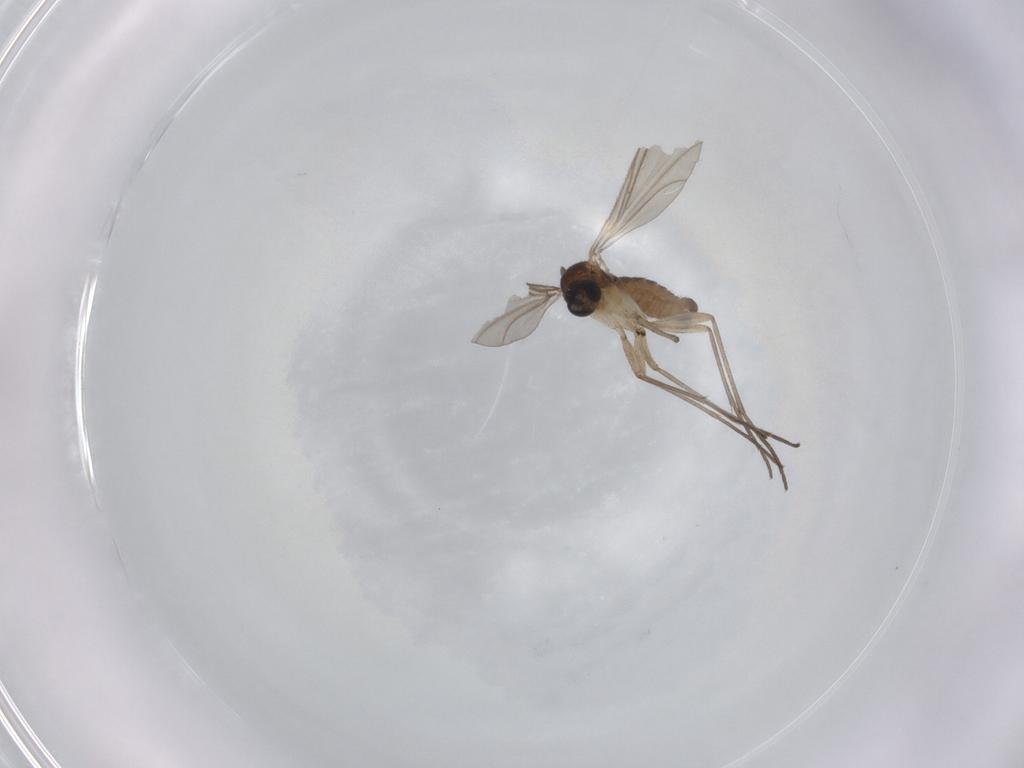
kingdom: Animalia
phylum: Arthropoda
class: Insecta
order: Diptera
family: Sciaridae
